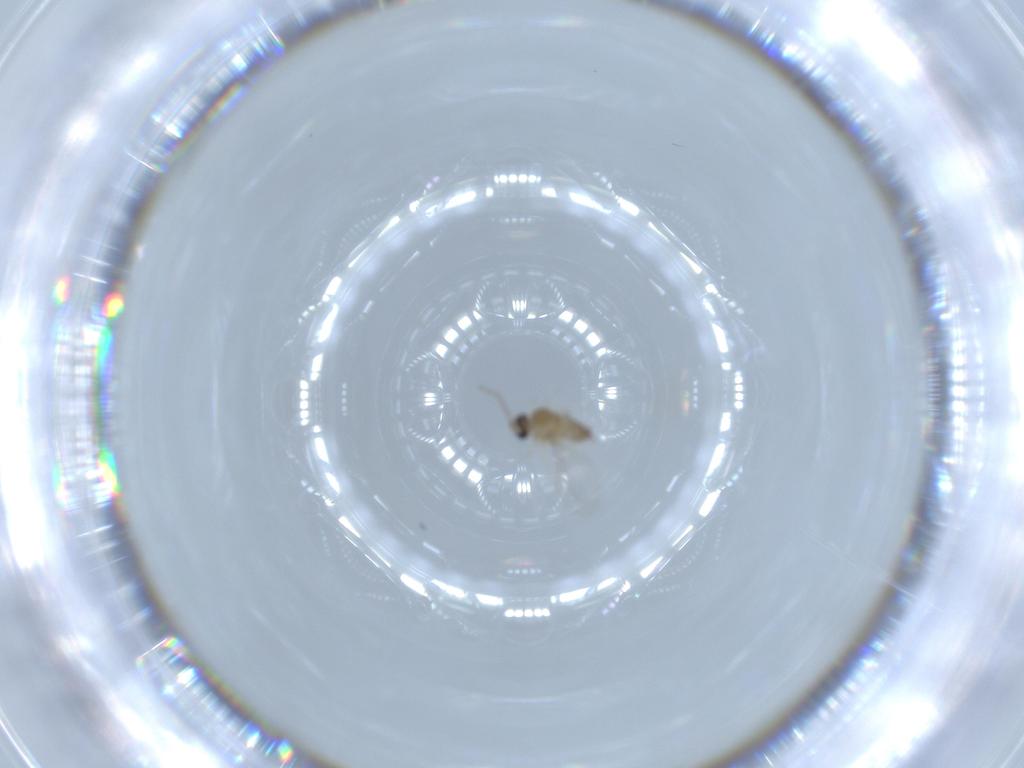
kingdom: Animalia
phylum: Arthropoda
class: Insecta
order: Diptera
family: Cecidomyiidae
